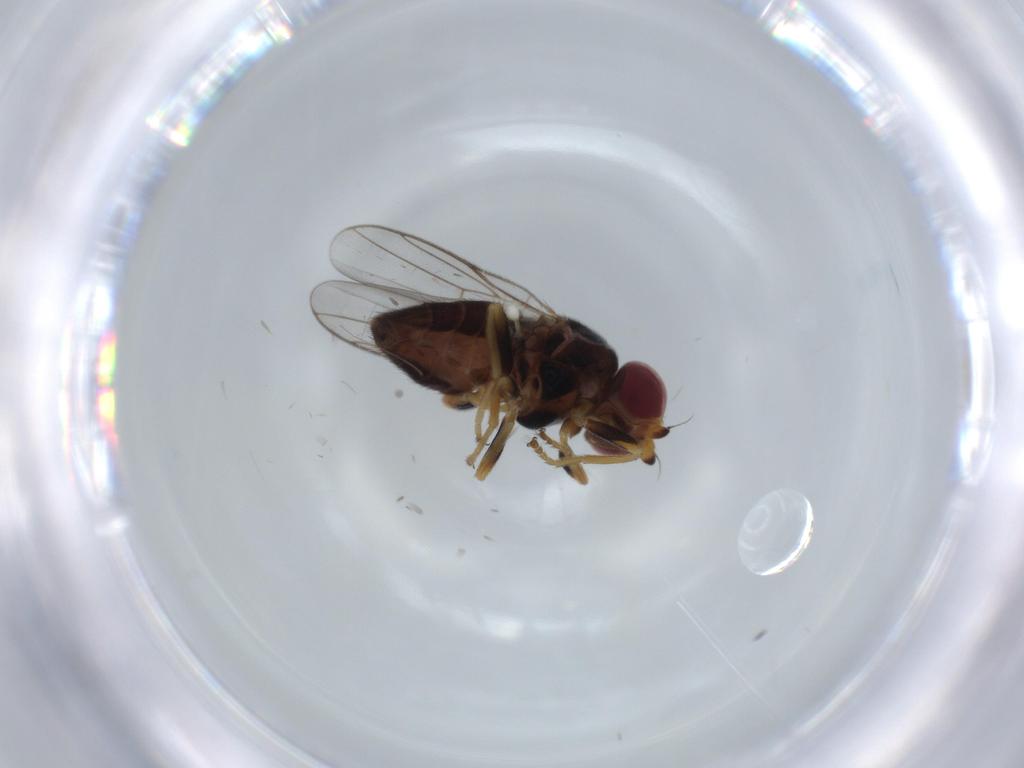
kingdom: Animalia
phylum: Arthropoda
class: Insecta
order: Diptera
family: Chloropidae
